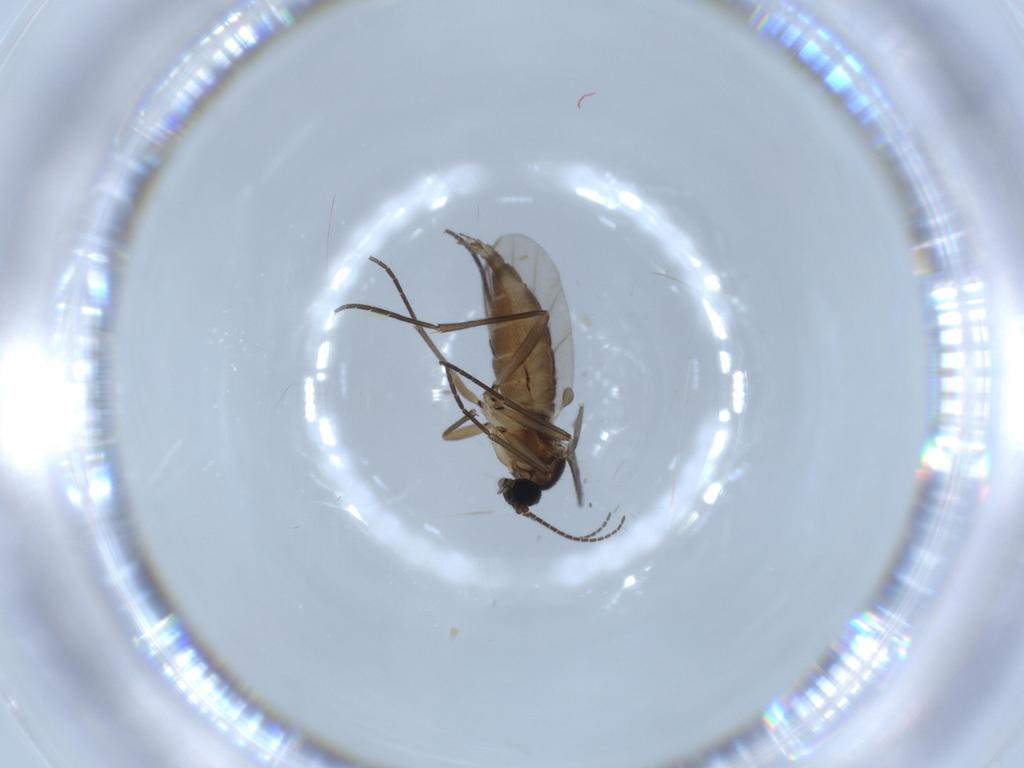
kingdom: Animalia
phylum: Arthropoda
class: Insecta
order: Diptera
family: Sciaridae
